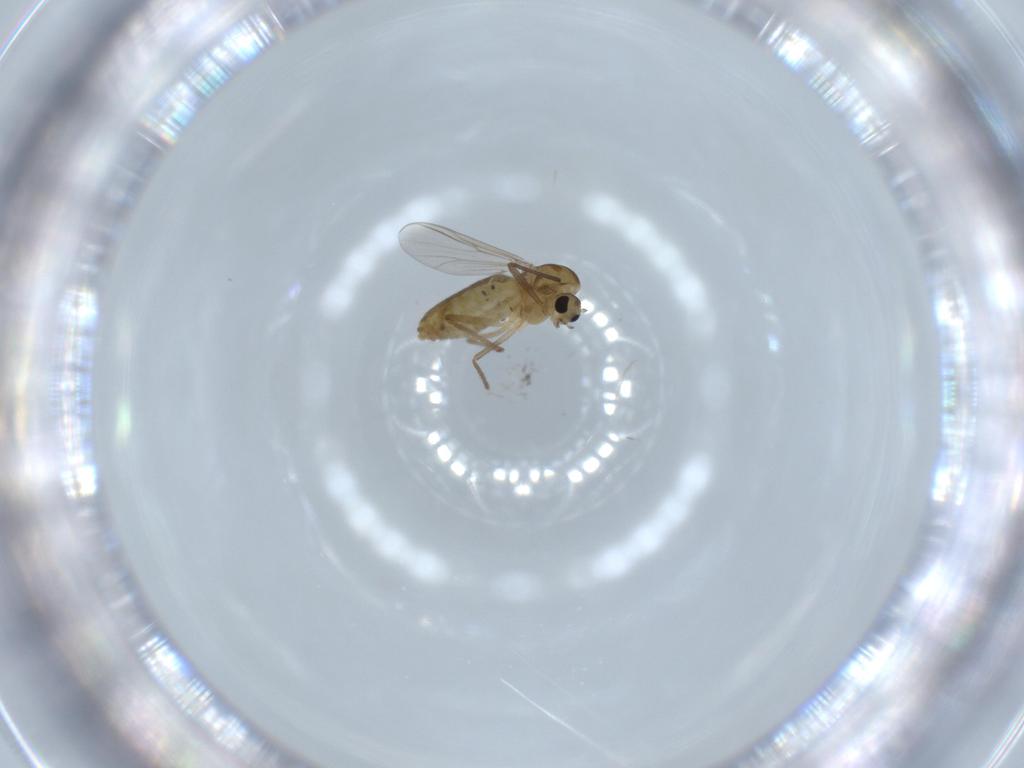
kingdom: Animalia
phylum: Arthropoda
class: Insecta
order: Diptera
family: Chironomidae
